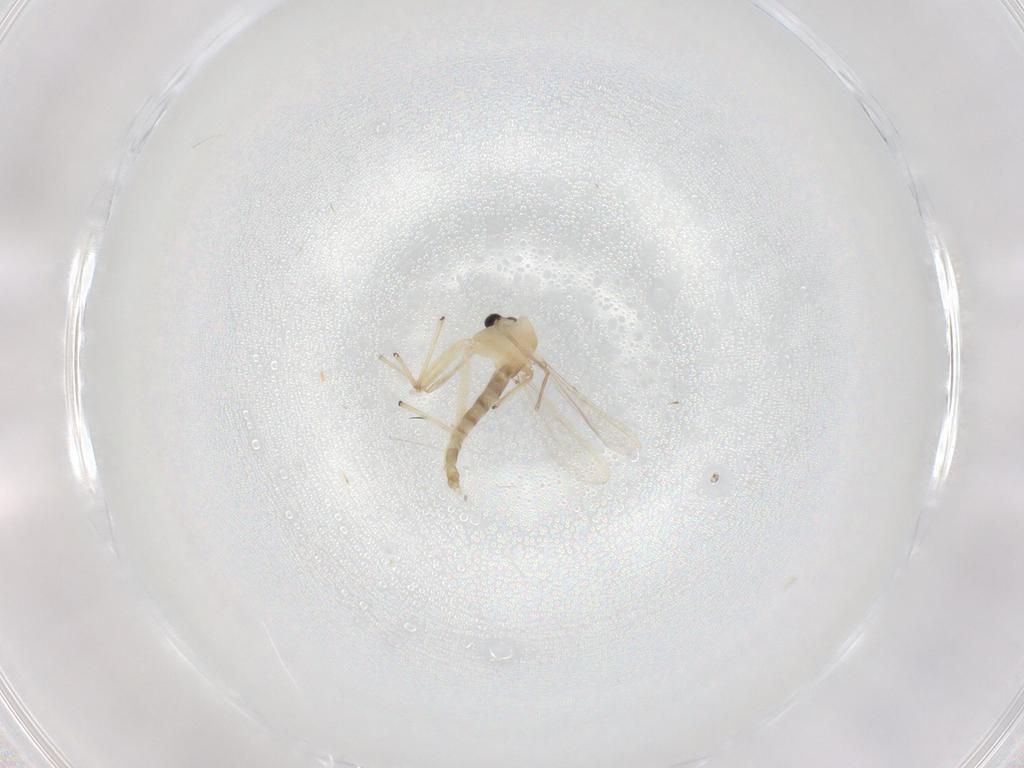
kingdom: Animalia
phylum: Arthropoda
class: Insecta
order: Diptera
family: Chironomidae
